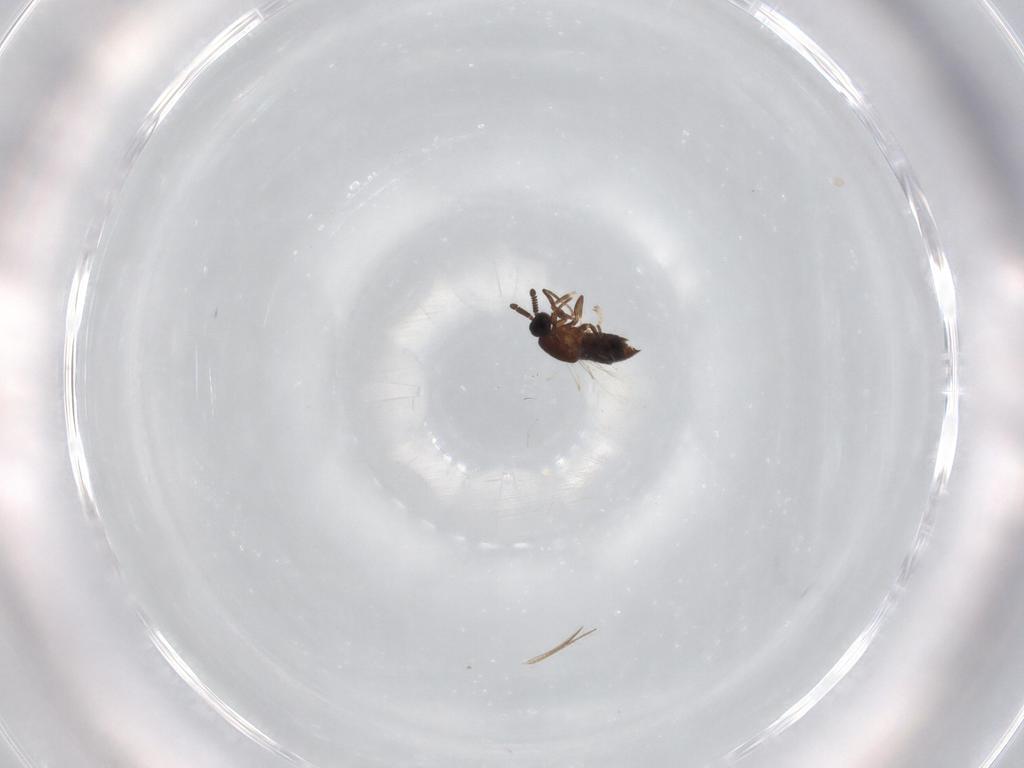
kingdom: Animalia
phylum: Arthropoda
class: Insecta
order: Diptera
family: Scatopsidae
